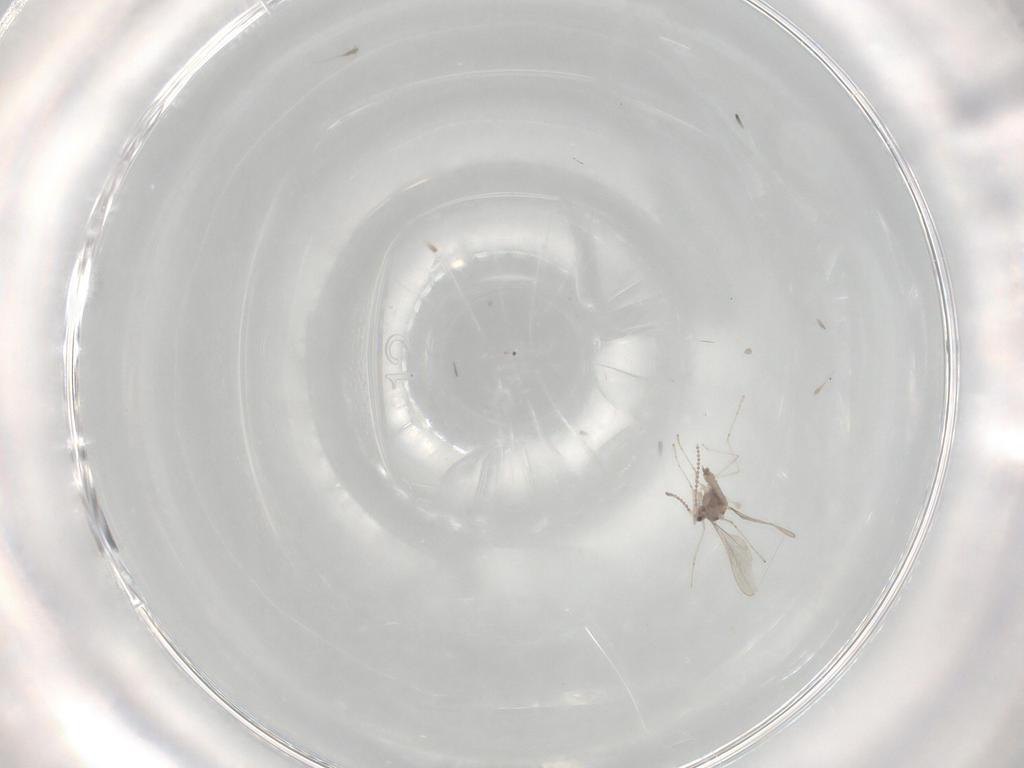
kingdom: Animalia
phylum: Arthropoda
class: Insecta
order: Diptera
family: Cecidomyiidae
